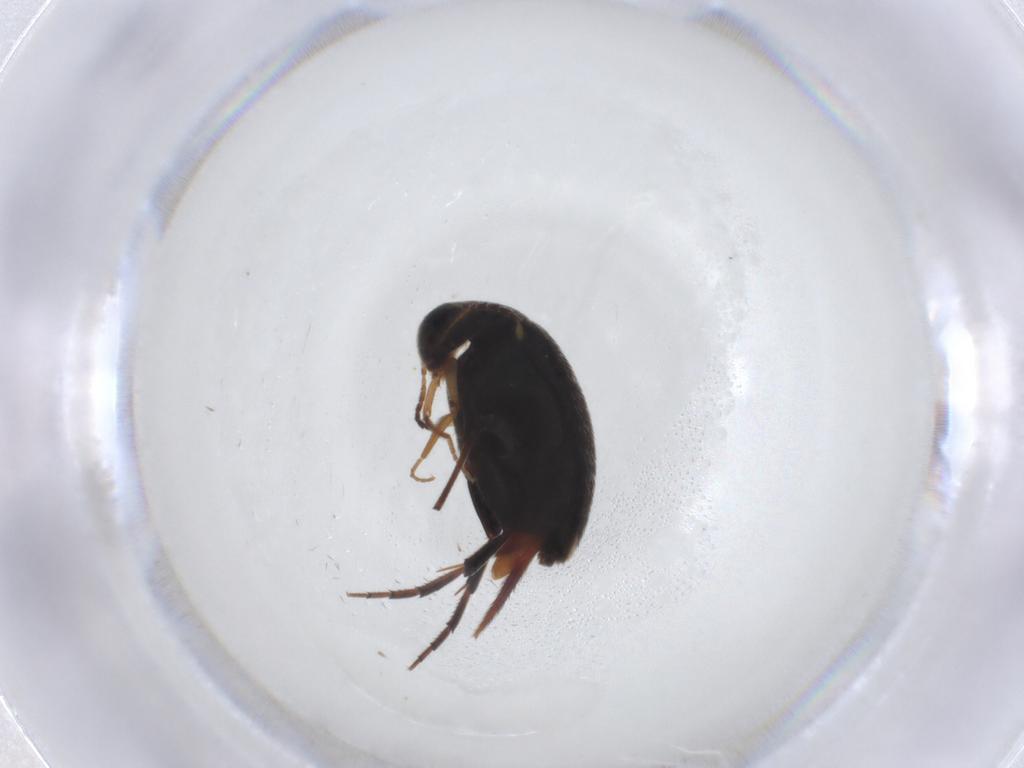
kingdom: Animalia
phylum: Arthropoda
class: Insecta
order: Coleoptera
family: Mordellidae
